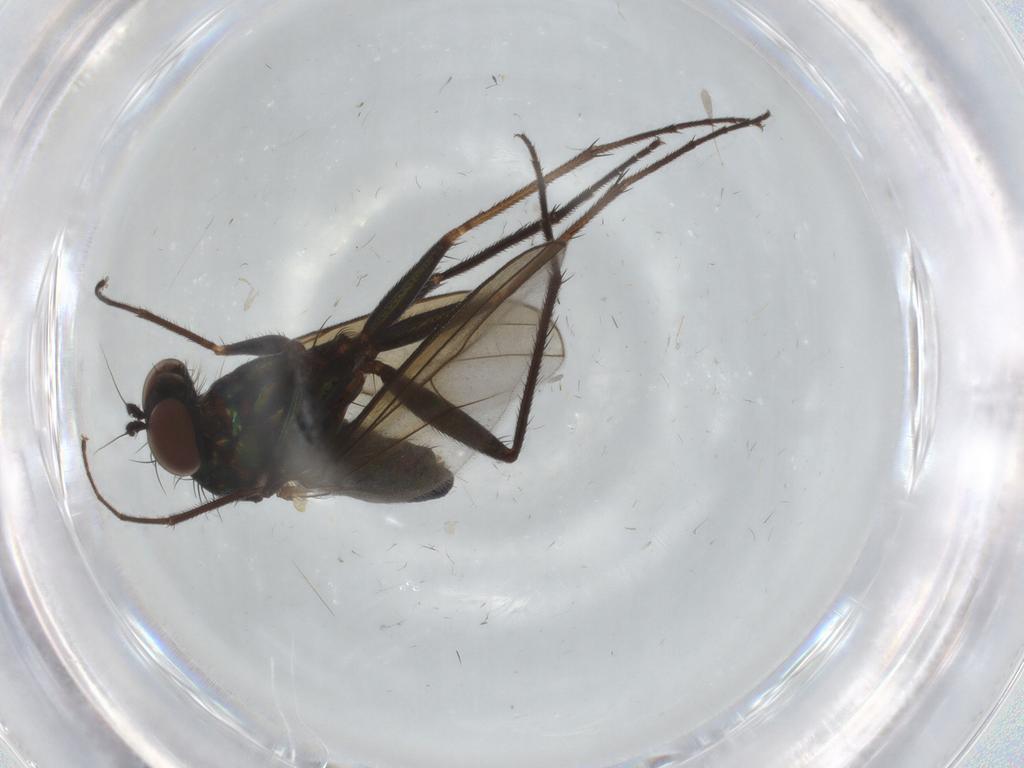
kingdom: Animalia
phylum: Arthropoda
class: Insecta
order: Diptera
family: Dolichopodidae
